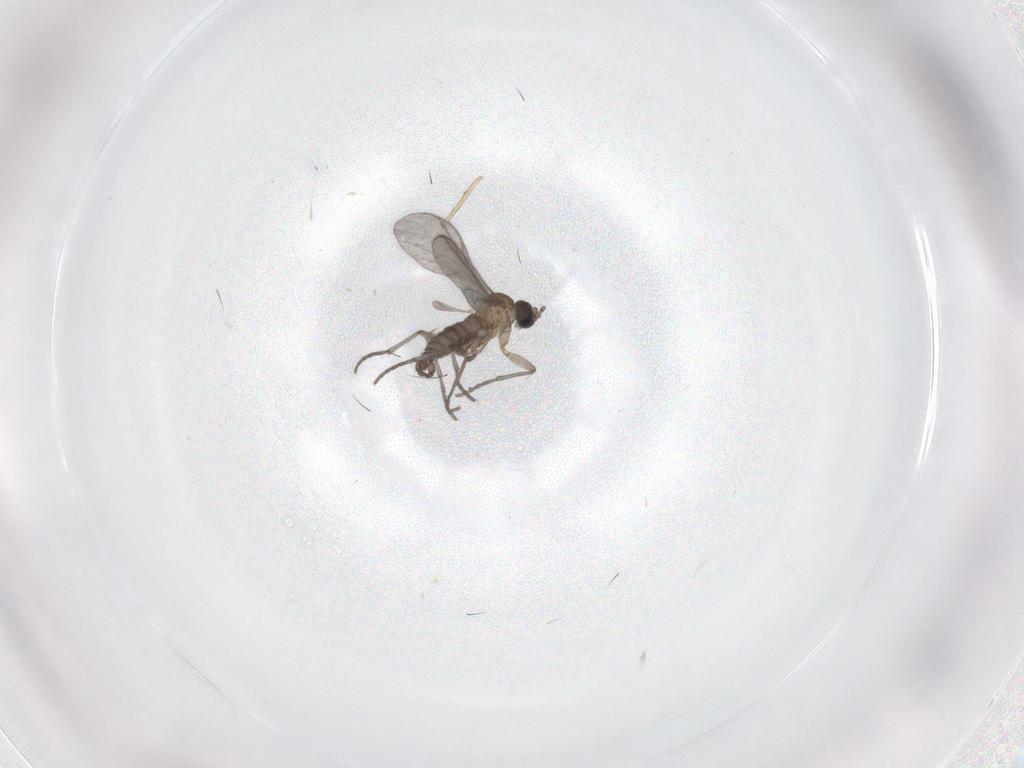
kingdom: Animalia
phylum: Arthropoda
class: Insecta
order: Diptera
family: Sciaridae
